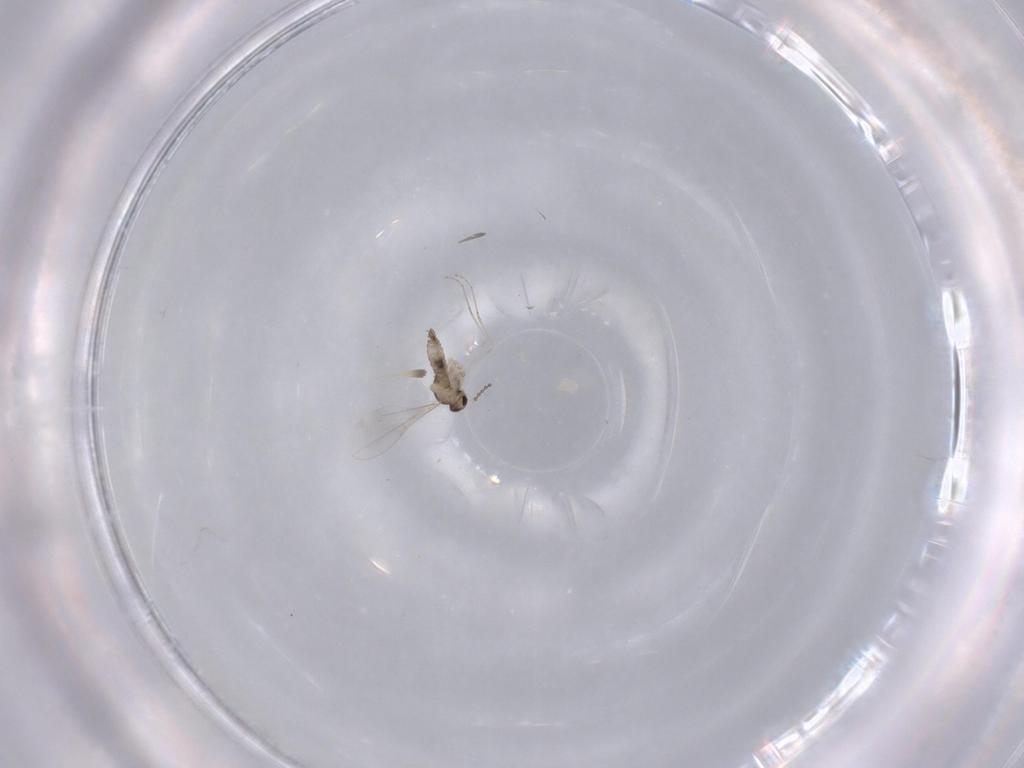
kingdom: Animalia
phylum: Arthropoda
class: Insecta
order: Diptera
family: Cecidomyiidae
